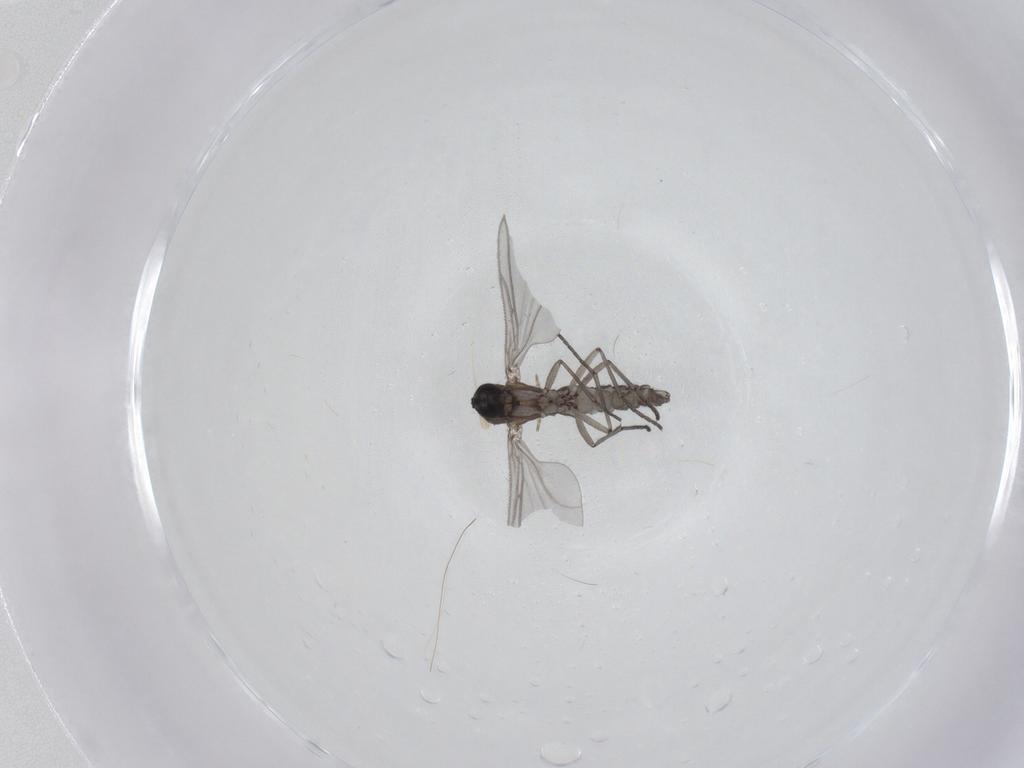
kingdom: Animalia
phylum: Arthropoda
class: Insecta
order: Diptera
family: Chironomidae
